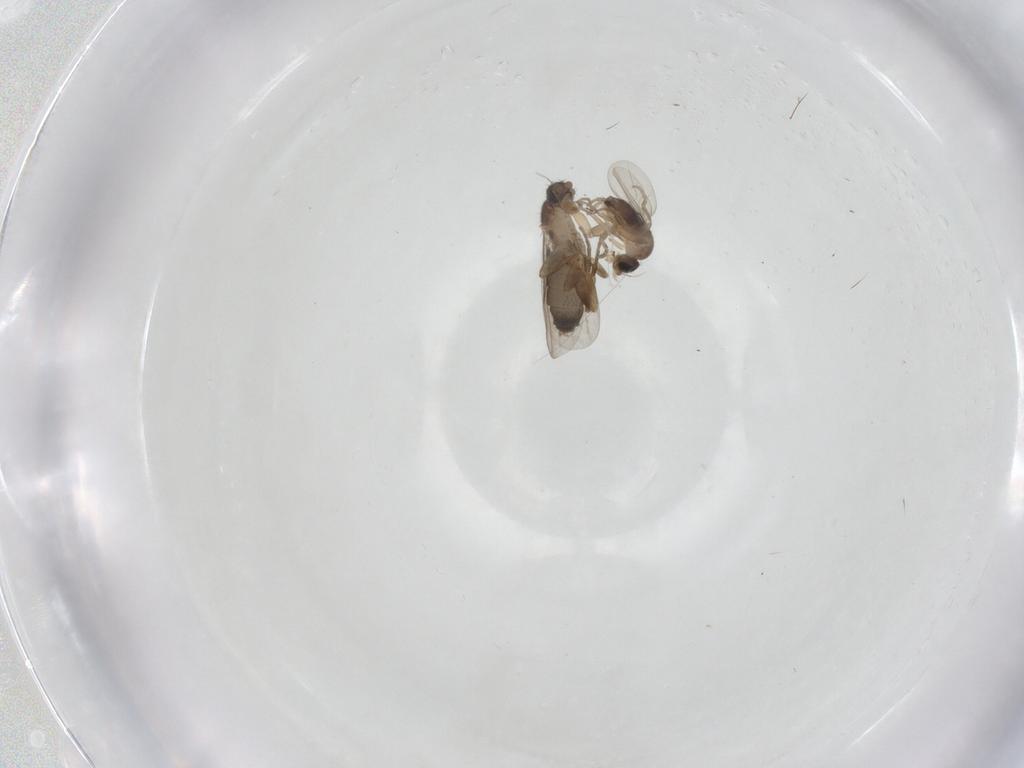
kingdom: Animalia
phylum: Arthropoda
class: Insecta
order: Diptera
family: Phoridae
